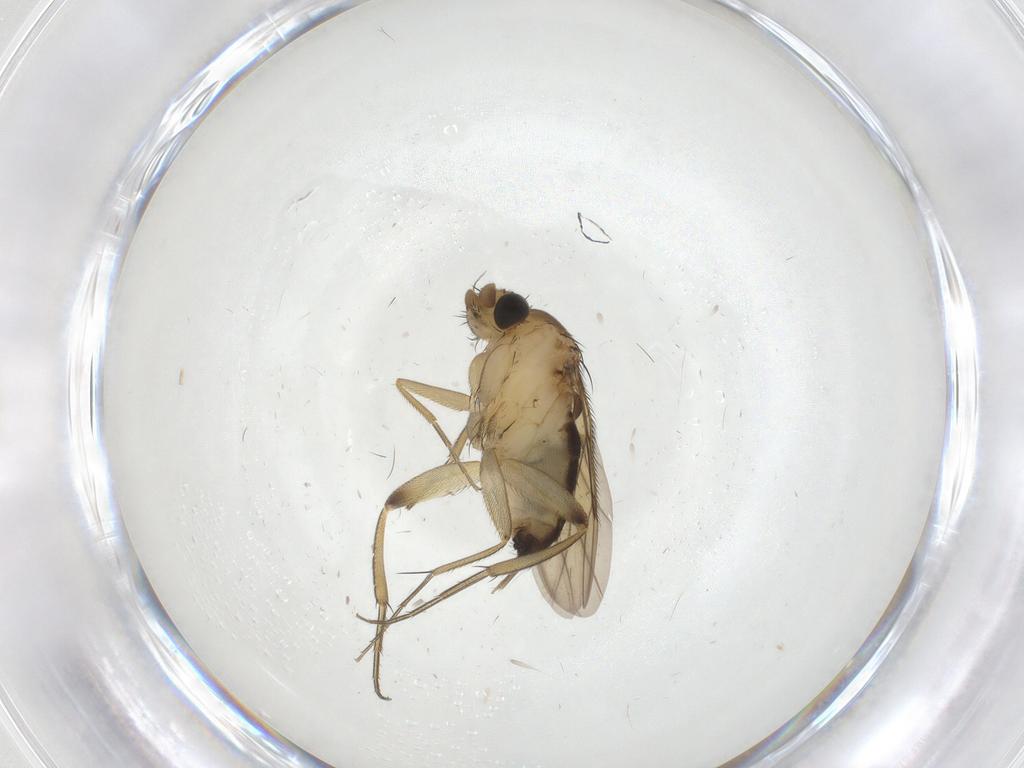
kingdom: Animalia
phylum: Arthropoda
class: Insecta
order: Diptera
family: Phoridae
